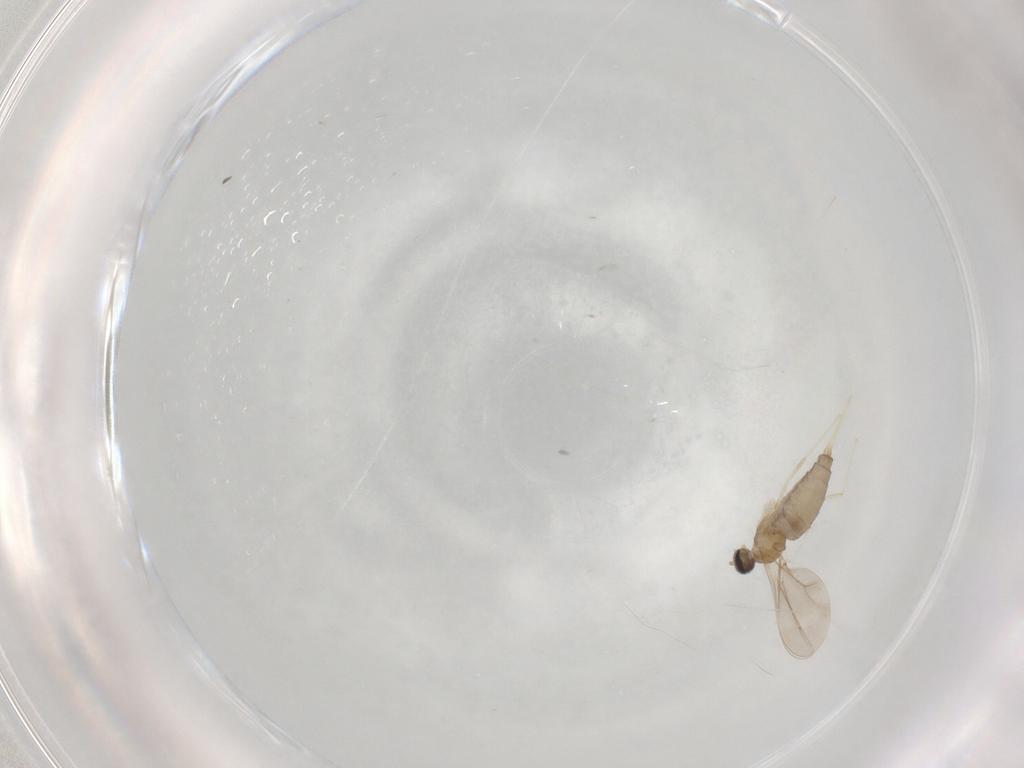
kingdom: Animalia
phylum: Arthropoda
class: Insecta
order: Diptera
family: Cecidomyiidae
